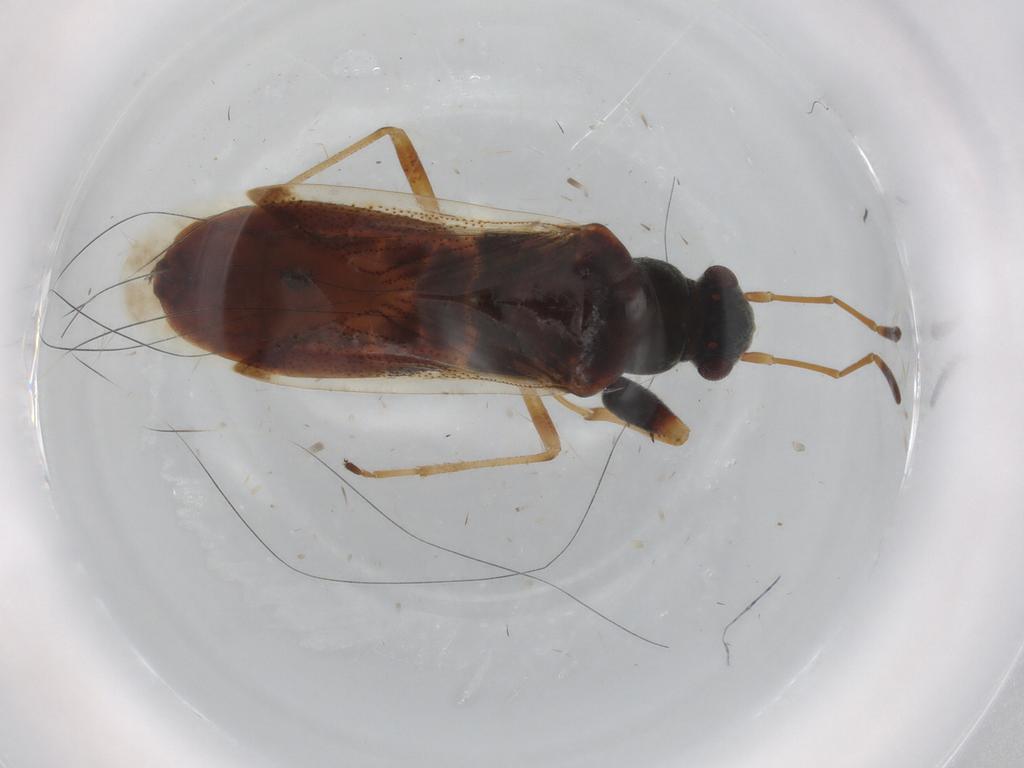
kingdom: Animalia
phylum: Arthropoda
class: Insecta
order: Hemiptera
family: Rhyparochromidae
